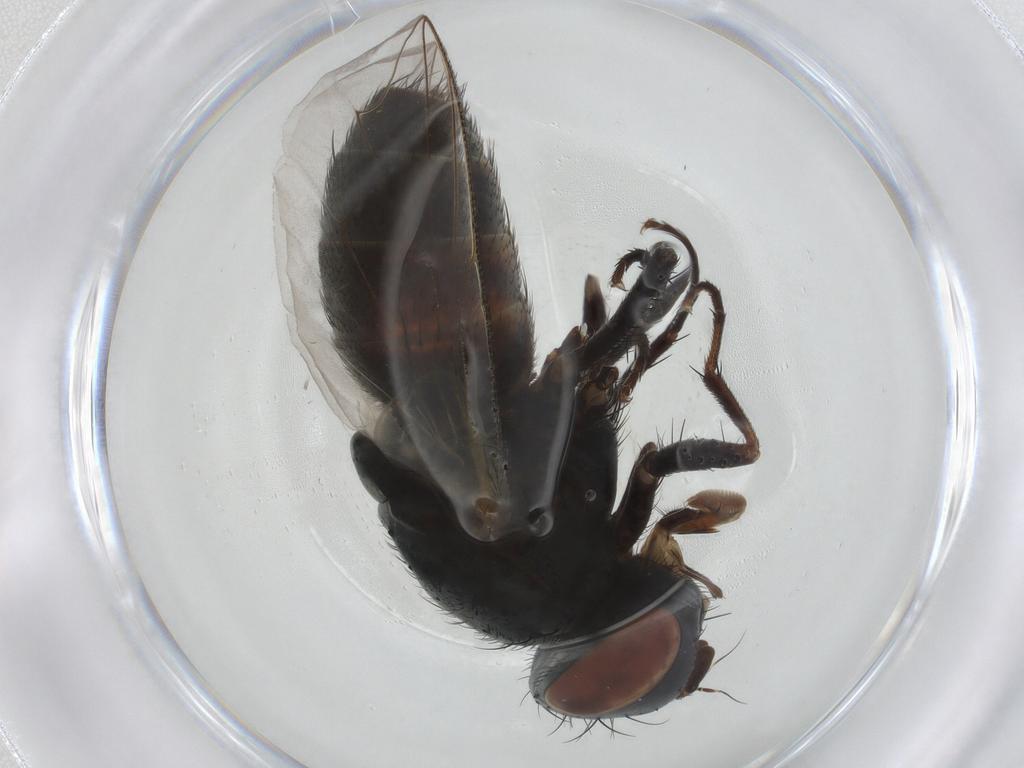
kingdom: Animalia
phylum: Arthropoda
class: Insecta
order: Diptera
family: Sarcophagidae
